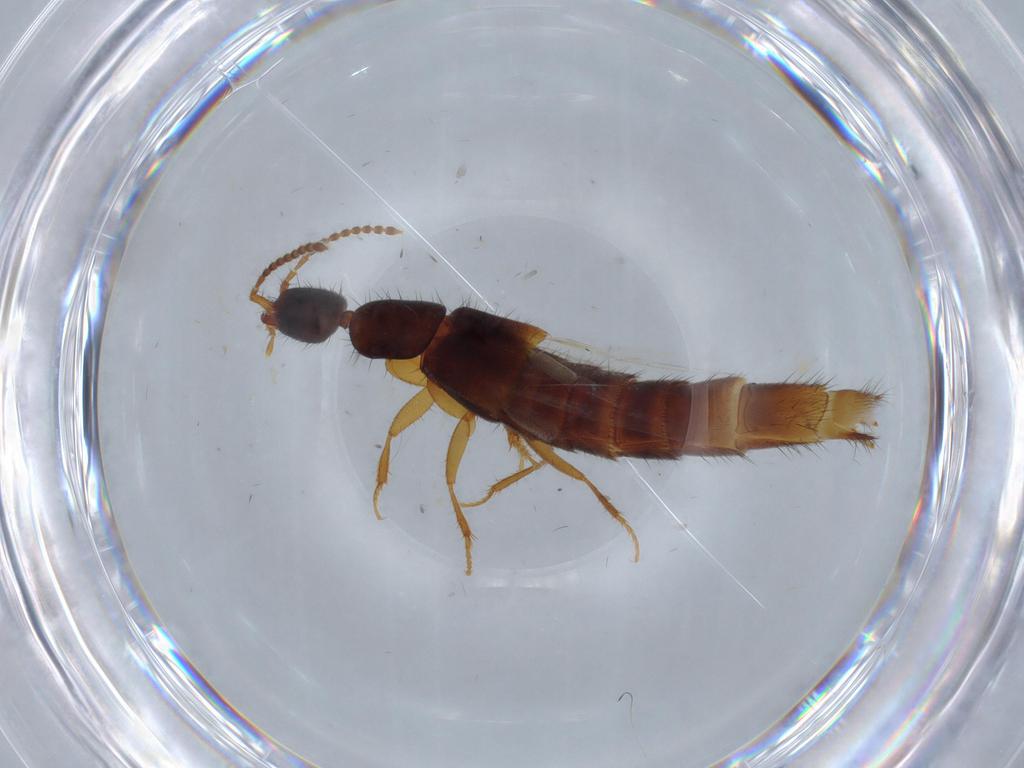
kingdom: Animalia
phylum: Arthropoda
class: Insecta
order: Coleoptera
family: Staphylinidae
